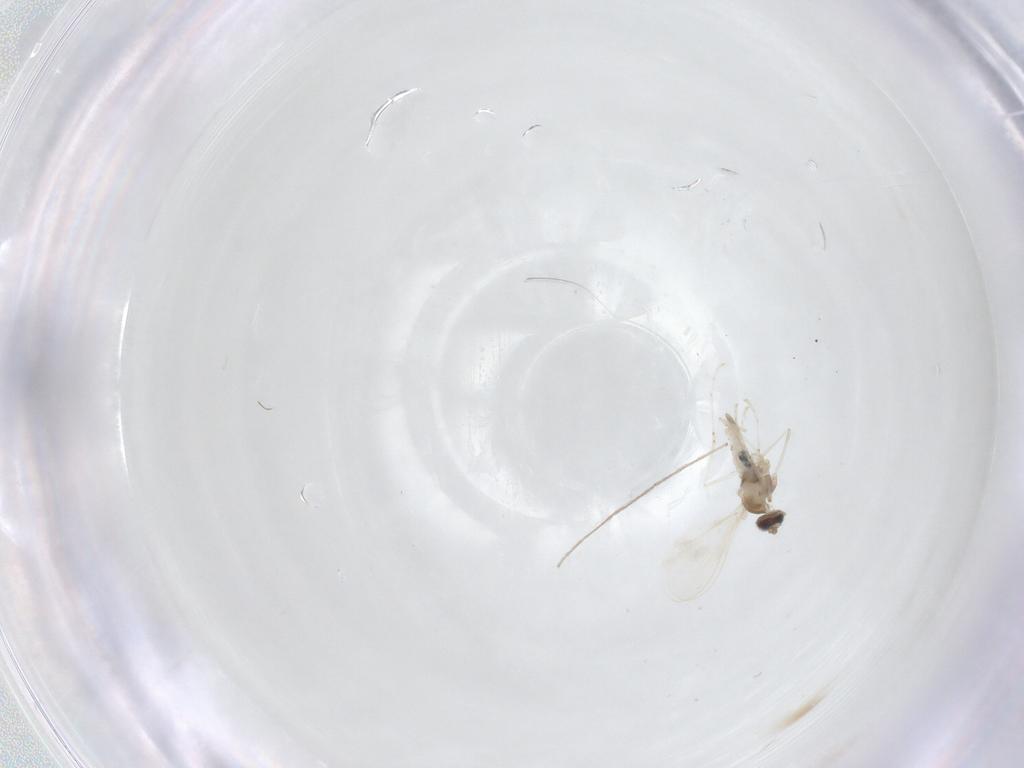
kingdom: Animalia
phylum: Arthropoda
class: Insecta
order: Diptera
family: Cecidomyiidae
